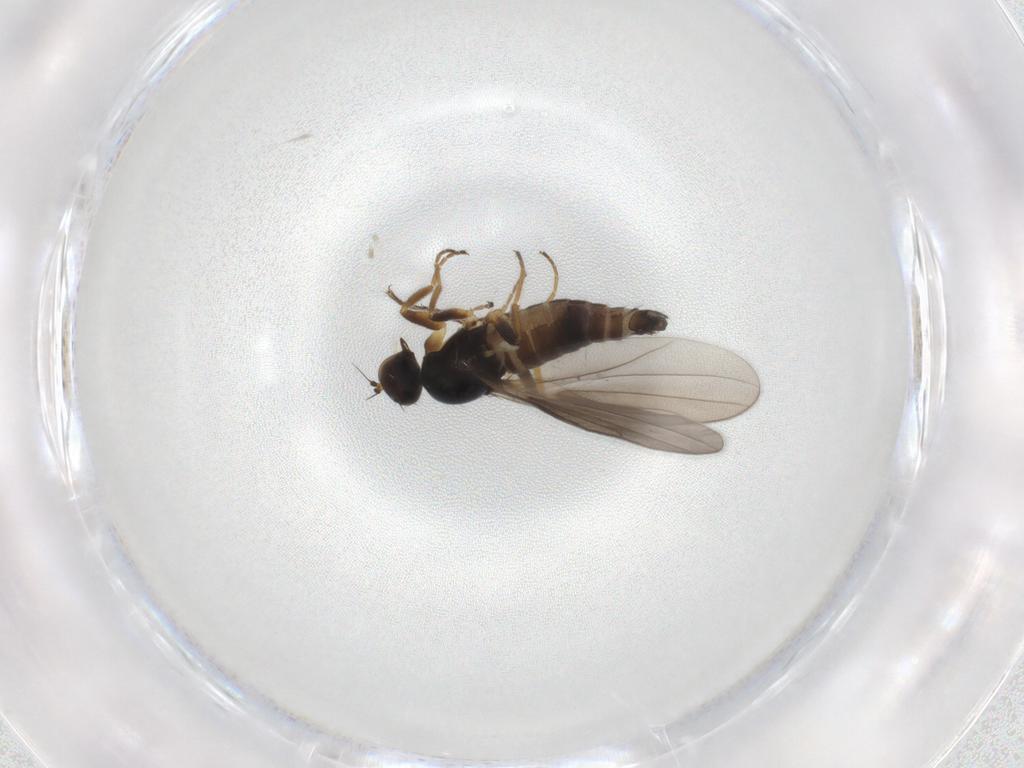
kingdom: Animalia
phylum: Arthropoda
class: Insecta
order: Diptera
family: Hybotidae
